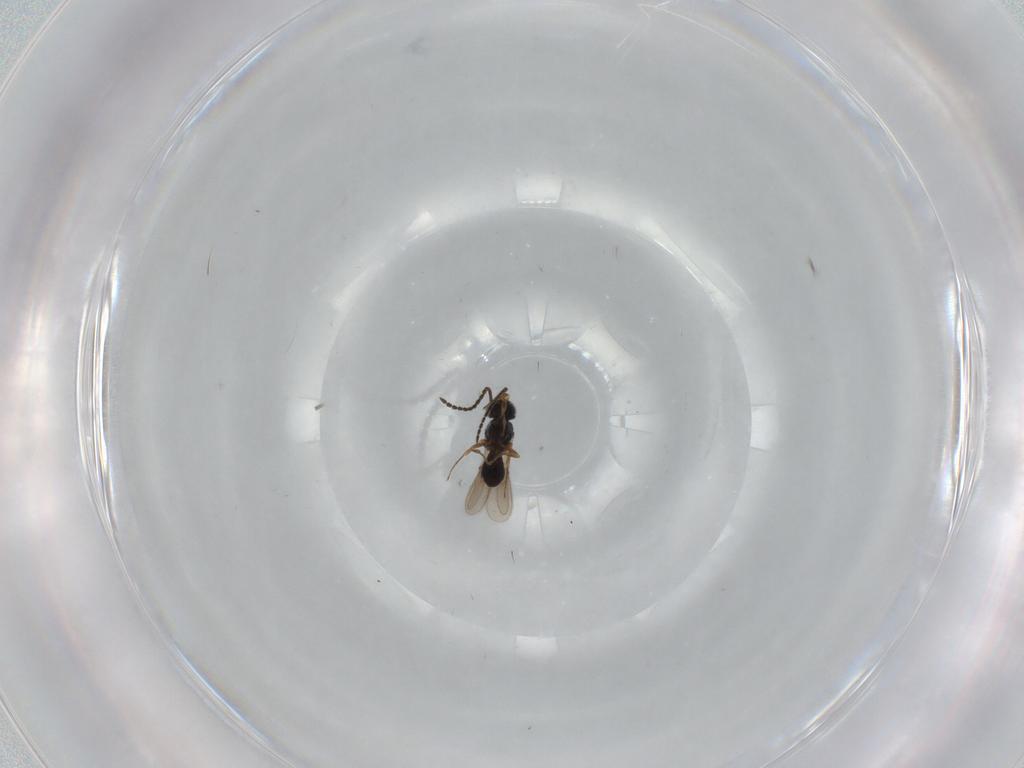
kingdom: Animalia
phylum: Arthropoda
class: Insecta
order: Hymenoptera
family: Scelionidae
